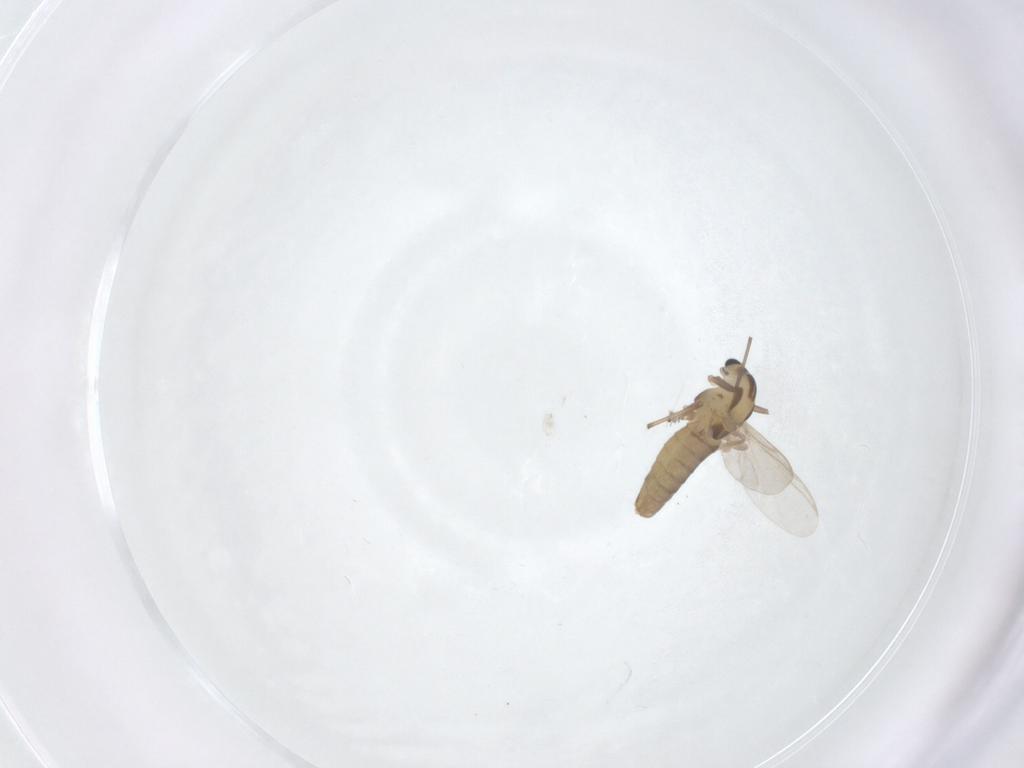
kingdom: Animalia
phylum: Arthropoda
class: Insecta
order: Diptera
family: Chironomidae
